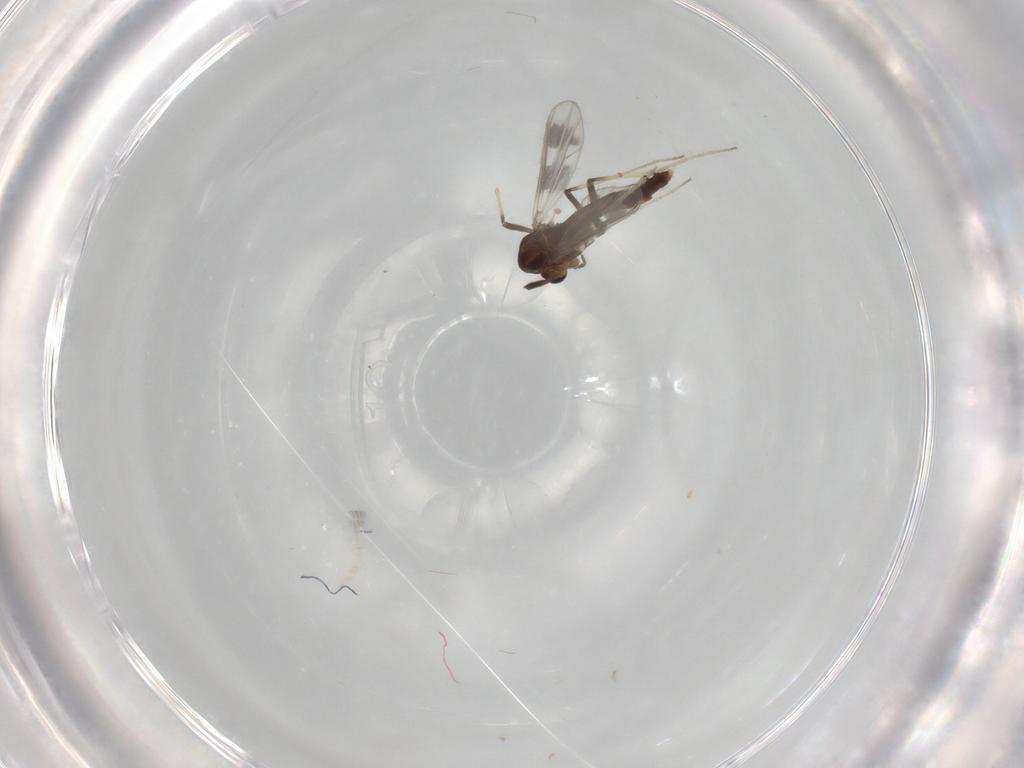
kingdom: Animalia
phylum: Arthropoda
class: Insecta
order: Diptera
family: Chironomidae
